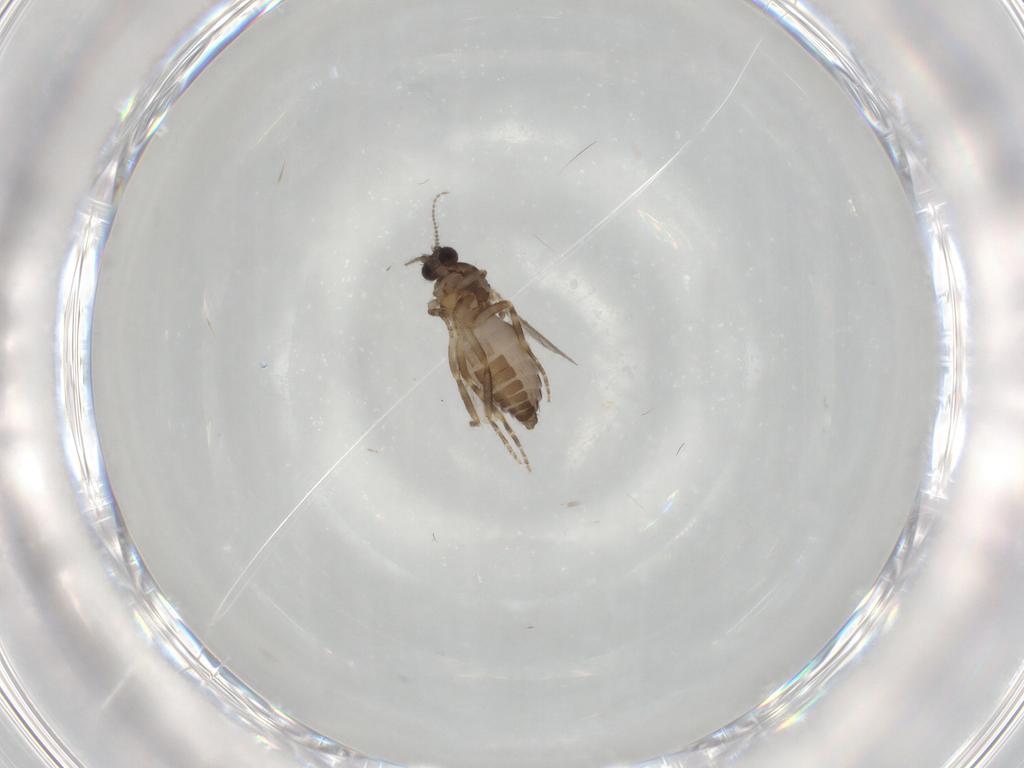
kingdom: Animalia
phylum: Arthropoda
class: Insecta
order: Diptera
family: Ceratopogonidae
